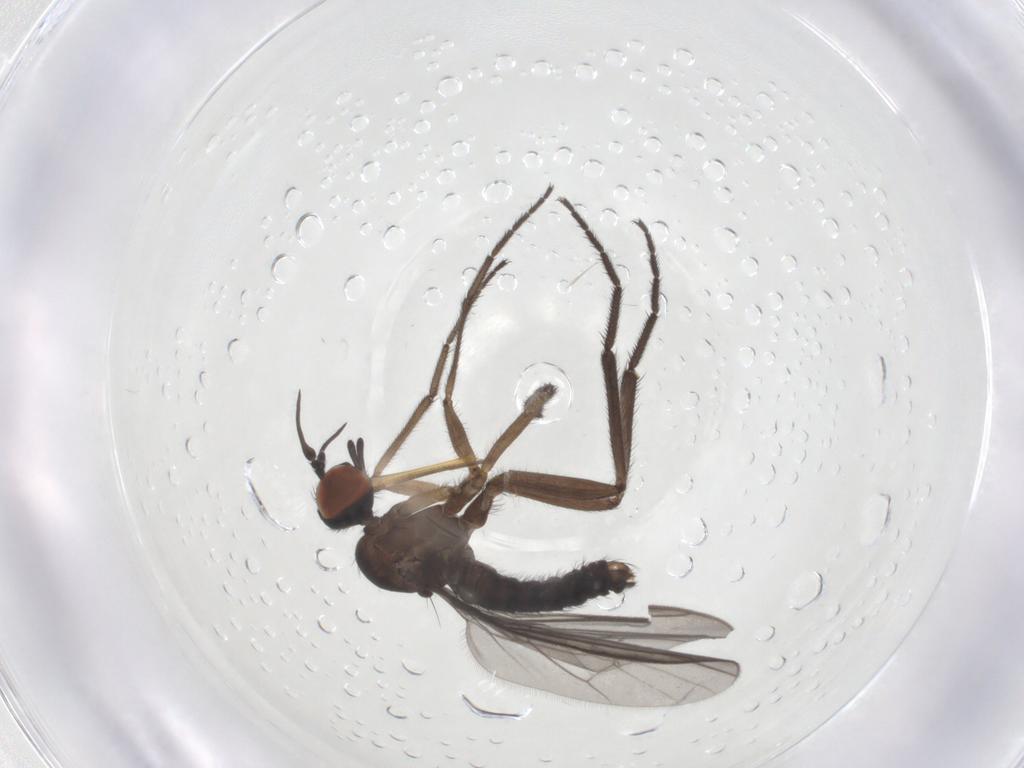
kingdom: Animalia
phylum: Arthropoda
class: Insecta
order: Diptera
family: Empididae
